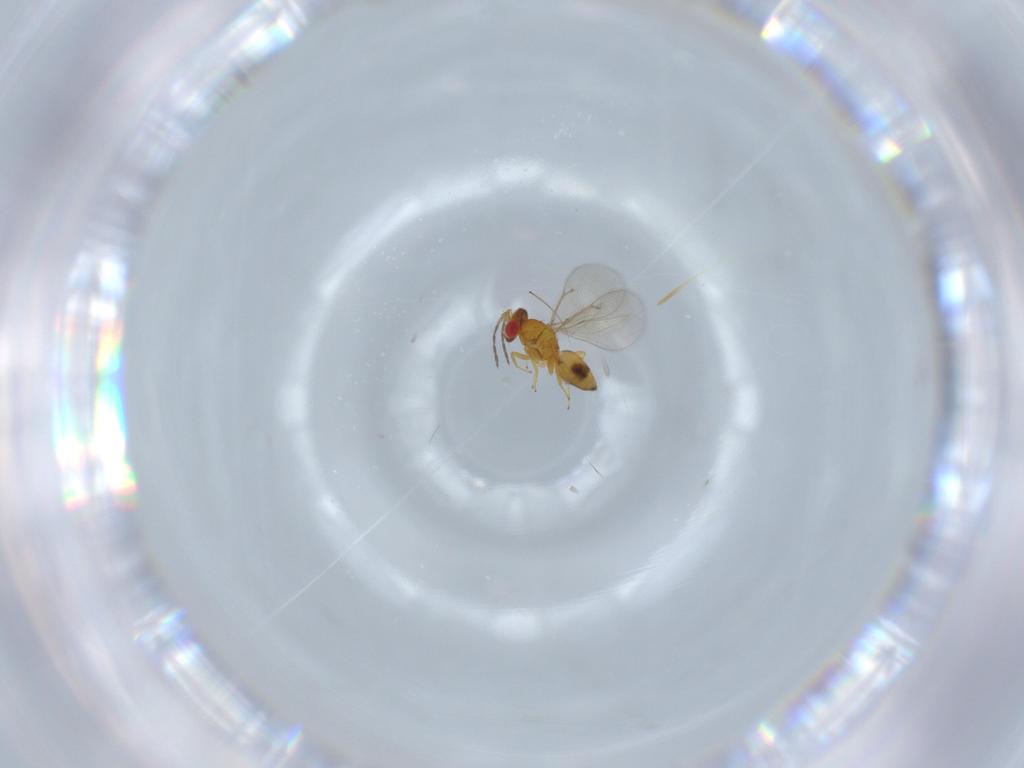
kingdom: Animalia
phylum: Arthropoda
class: Insecta
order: Hymenoptera
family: Eulophidae
